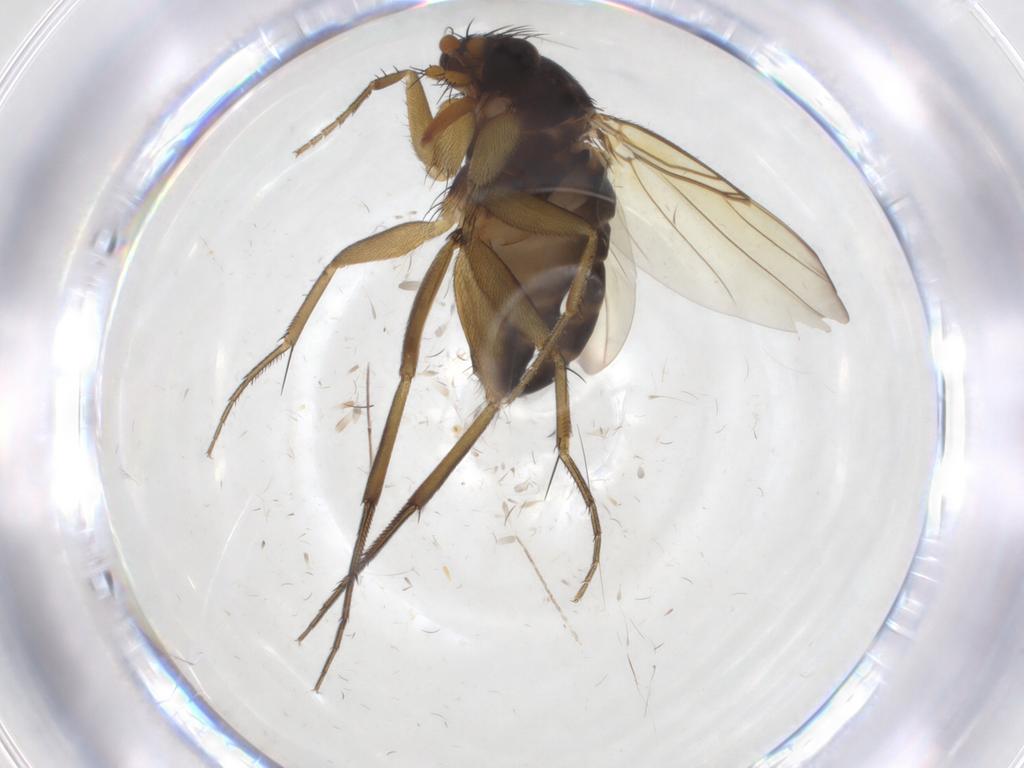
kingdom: Animalia
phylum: Arthropoda
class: Insecta
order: Diptera
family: Phoridae
